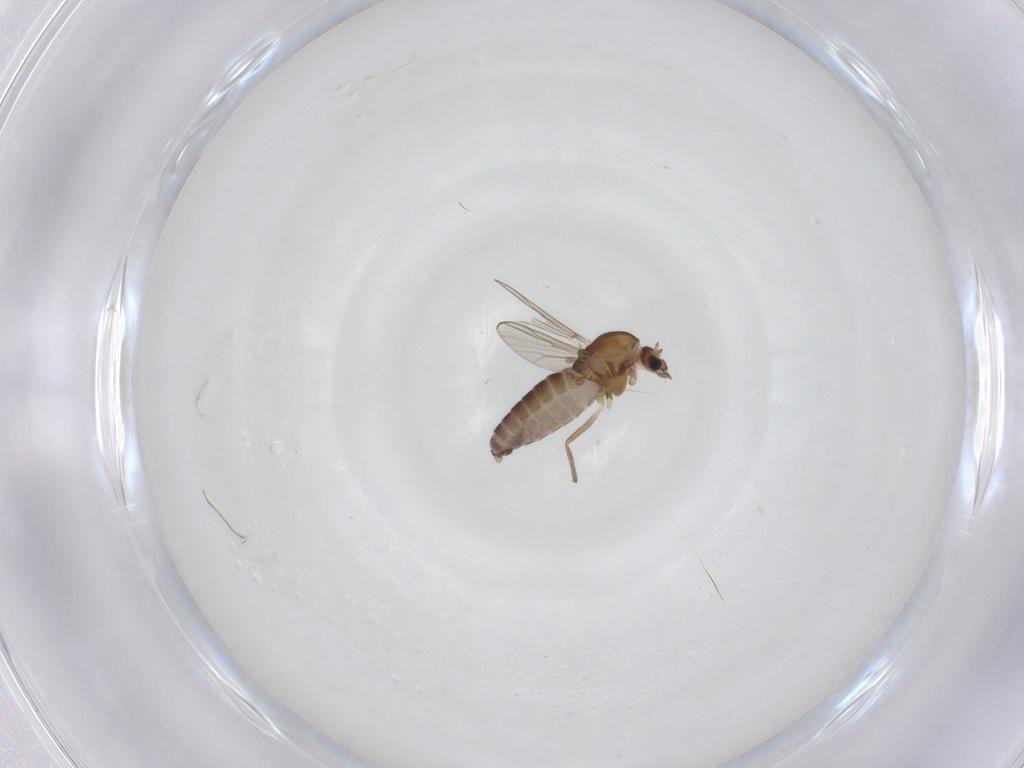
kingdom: Animalia
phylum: Arthropoda
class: Insecta
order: Diptera
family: Chironomidae
